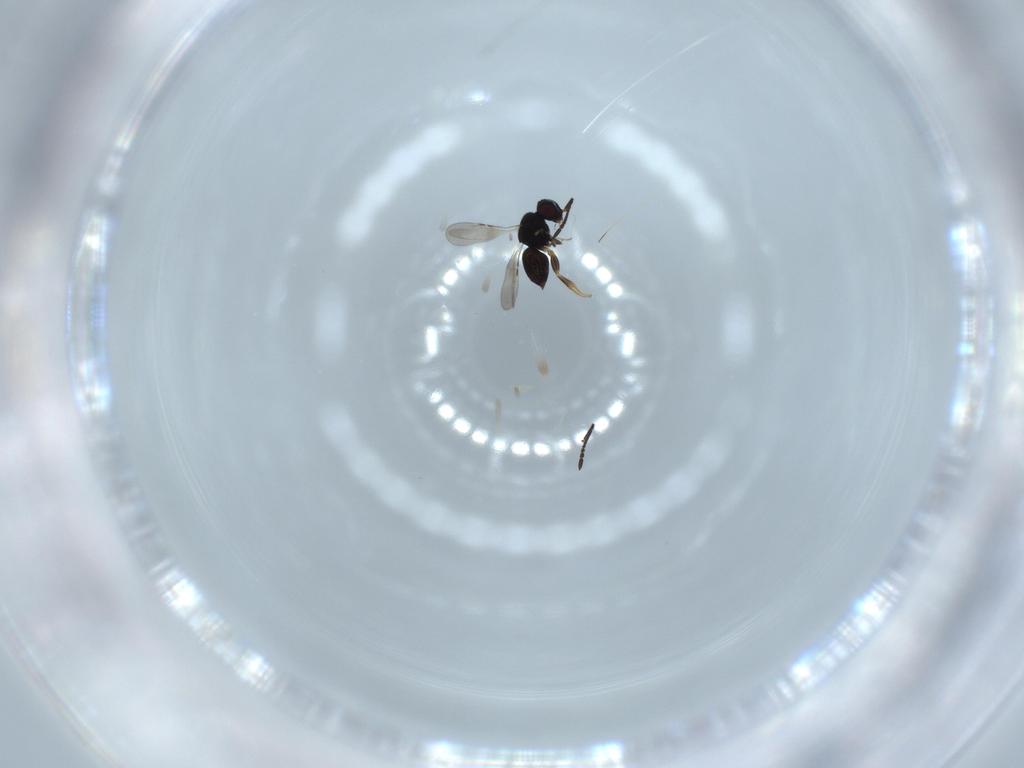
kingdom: Animalia
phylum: Arthropoda
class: Insecta
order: Hymenoptera
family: Ceraphronidae
